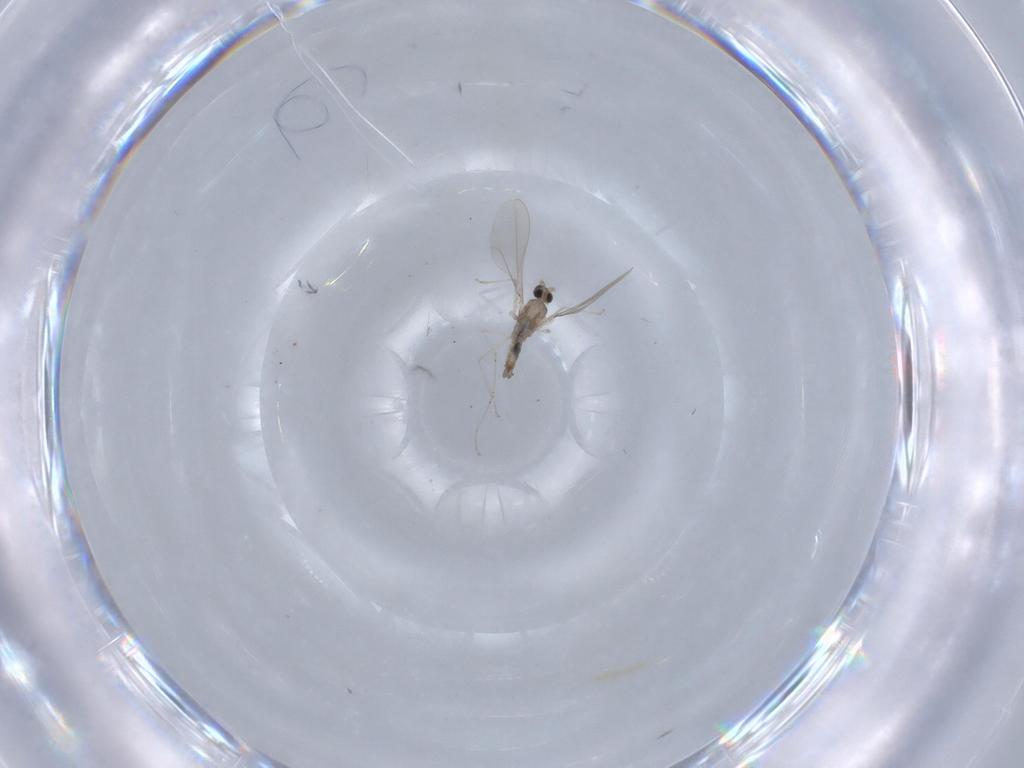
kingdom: Animalia
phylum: Arthropoda
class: Insecta
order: Diptera
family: Cecidomyiidae
